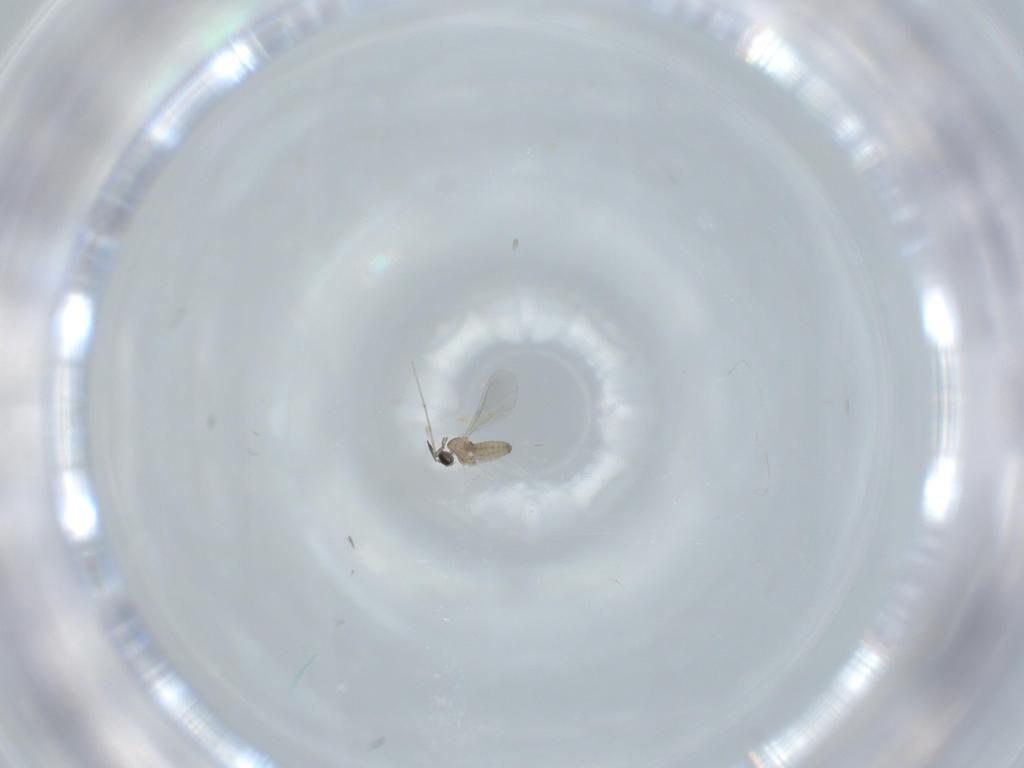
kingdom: Animalia
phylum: Arthropoda
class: Insecta
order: Diptera
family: Cecidomyiidae
